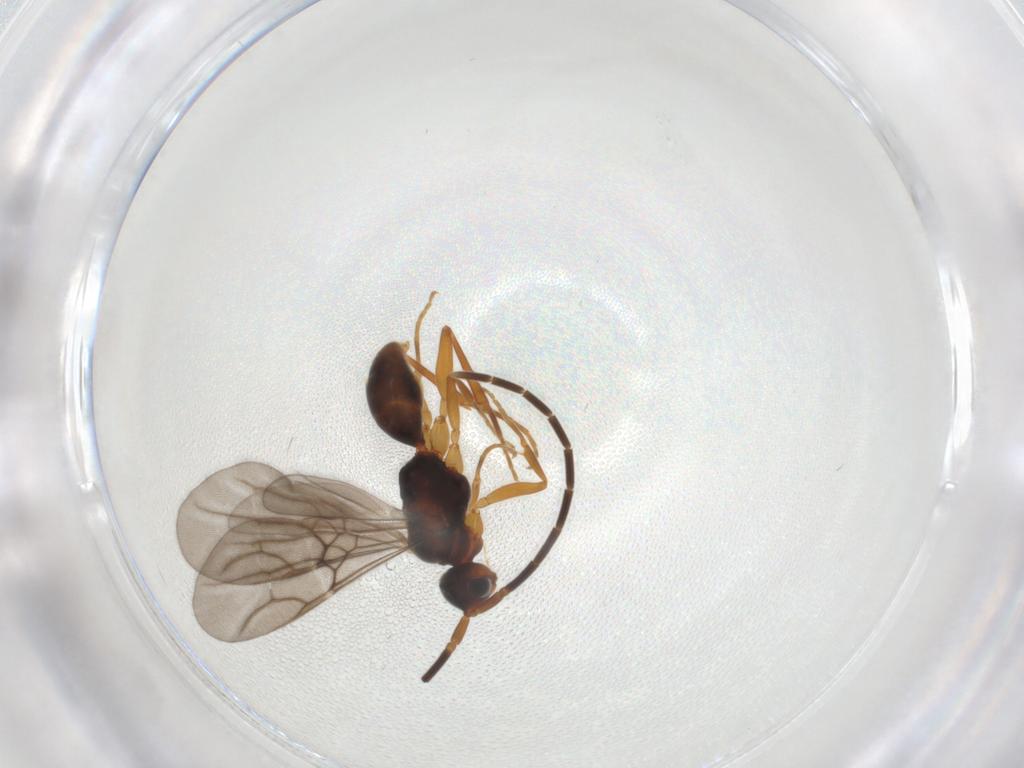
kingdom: Animalia
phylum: Arthropoda
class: Insecta
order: Hymenoptera
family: Embolemidae
